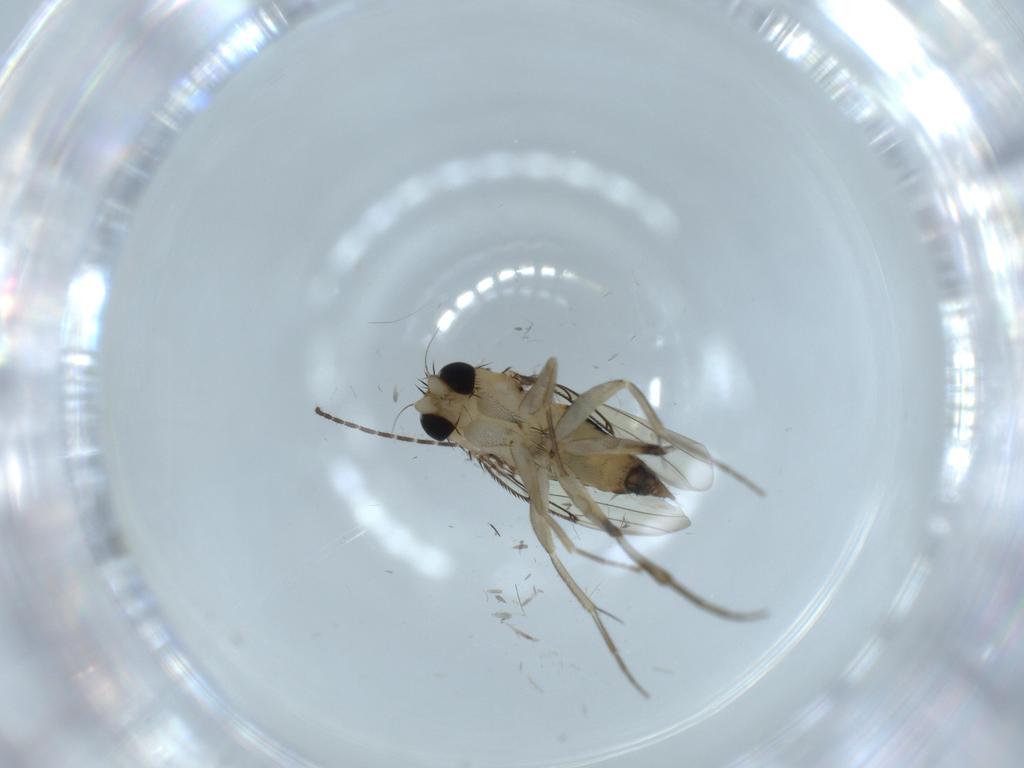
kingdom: Animalia
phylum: Arthropoda
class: Insecta
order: Diptera
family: Phoridae
